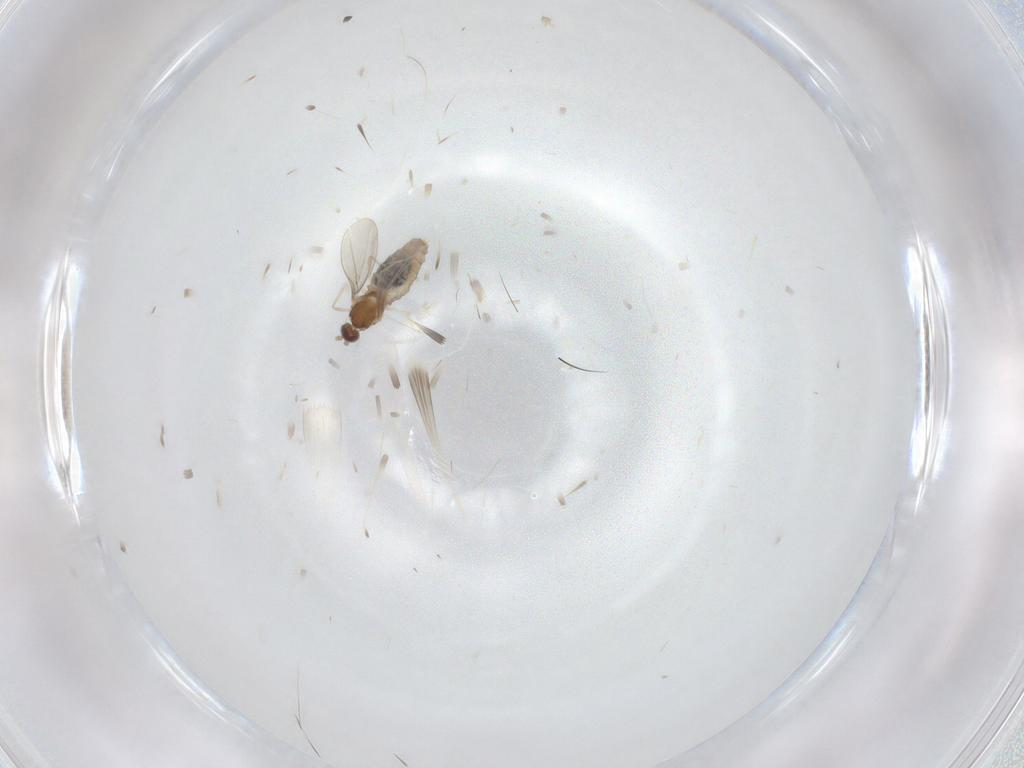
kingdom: Animalia
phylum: Arthropoda
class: Insecta
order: Diptera
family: Cecidomyiidae
